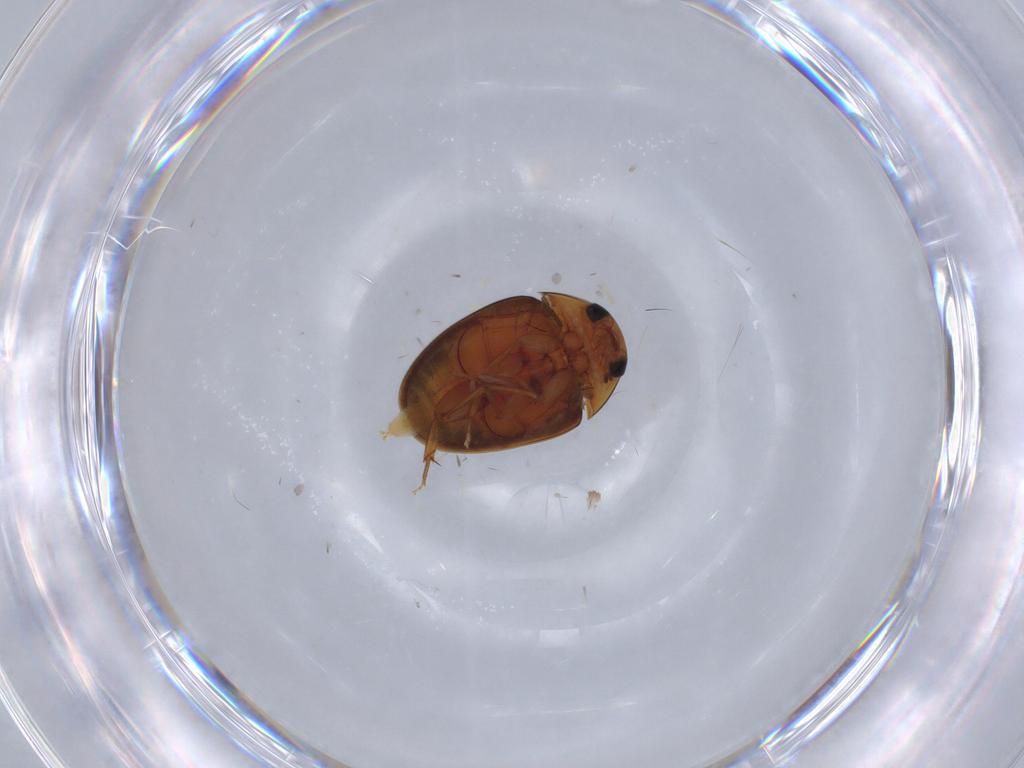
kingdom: Animalia
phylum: Arthropoda
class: Insecta
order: Coleoptera
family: Phalacridae
